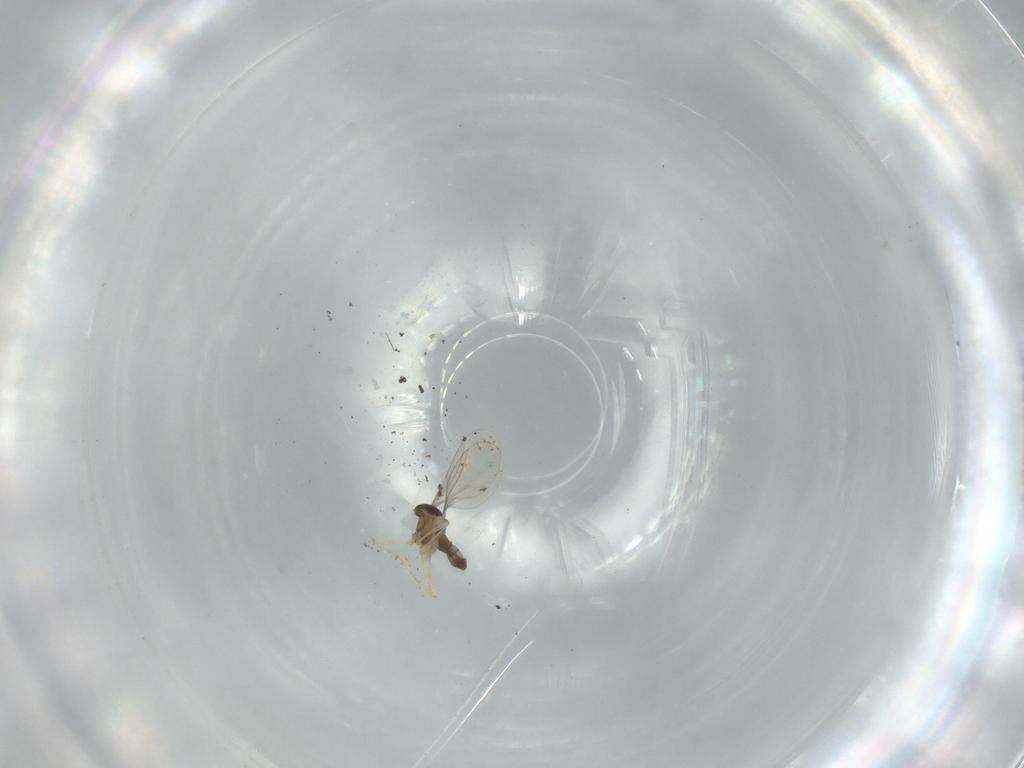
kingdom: Animalia
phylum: Arthropoda
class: Insecta
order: Diptera
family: Cecidomyiidae
